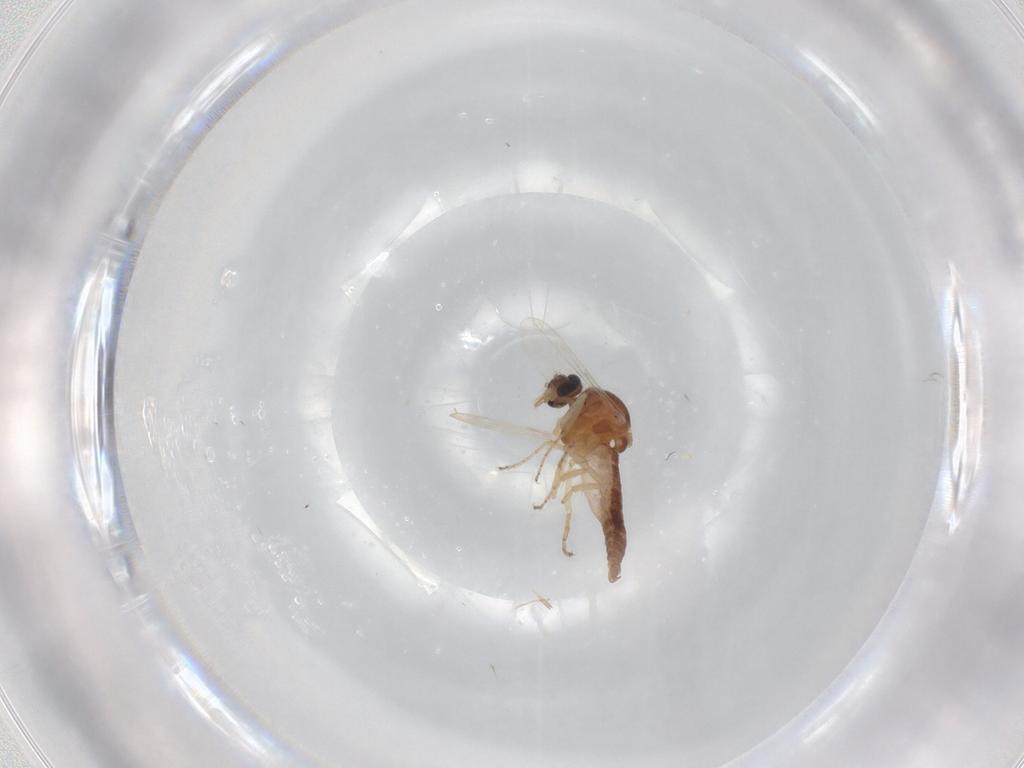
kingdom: Animalia
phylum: Arthropoda
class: Insecta
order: Diptera
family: Ceratopogonidae
